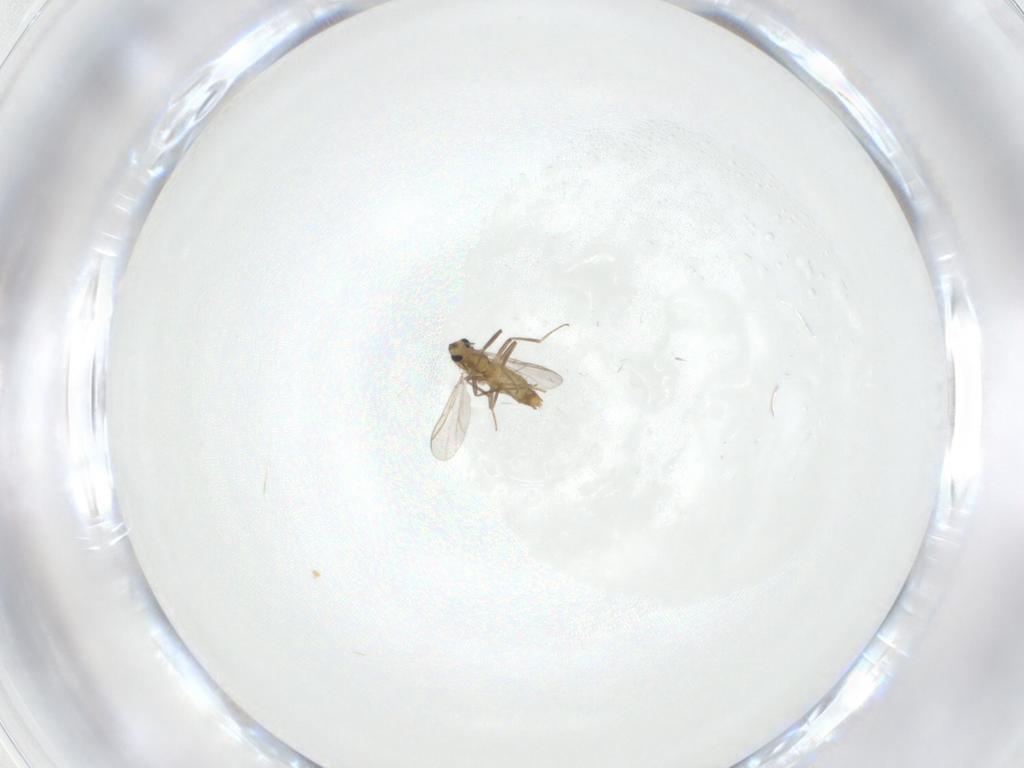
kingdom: Animalia
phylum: Arthropoda
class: Insecta
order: Diptera
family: Chironomidae
